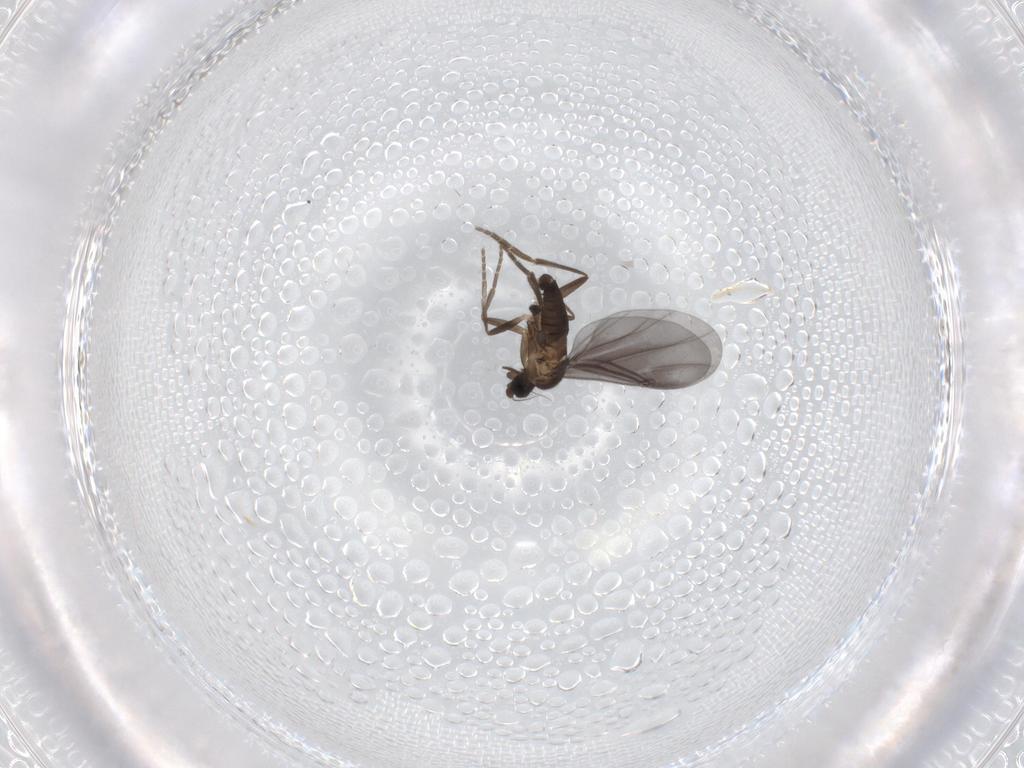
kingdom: Animalia
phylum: Arthropoda
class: Insecta
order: Diptera
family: Phoridae
